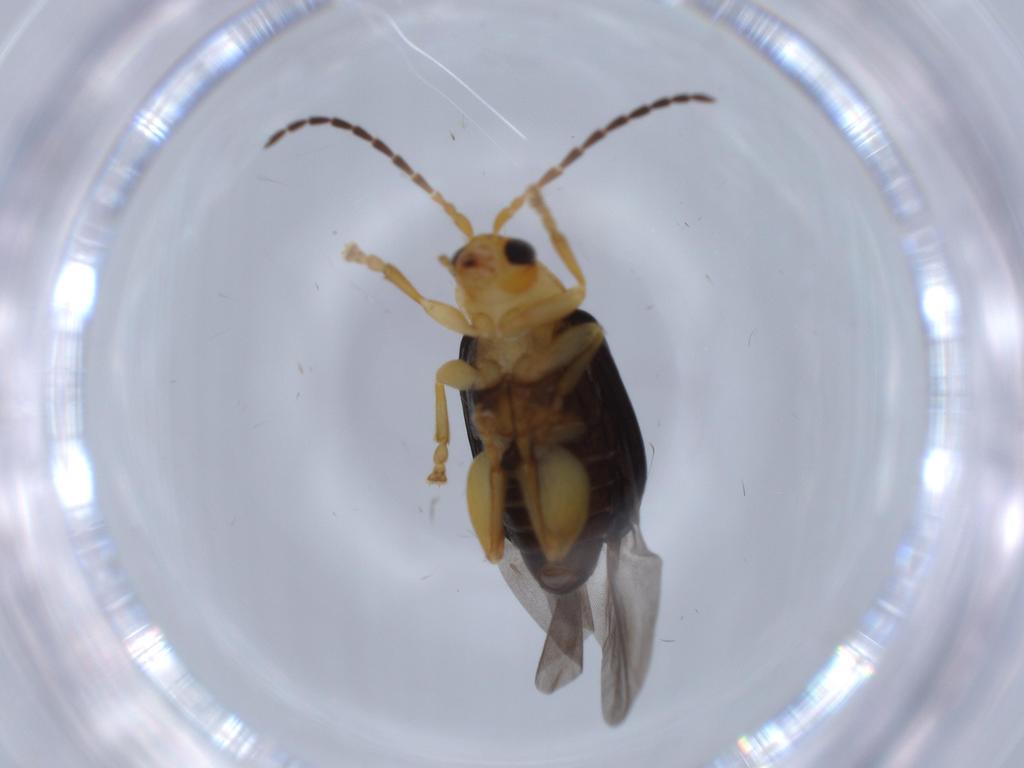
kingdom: Animalia
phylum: Arthropoda
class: Insecta
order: Coleoptera
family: Chrysomelidae
